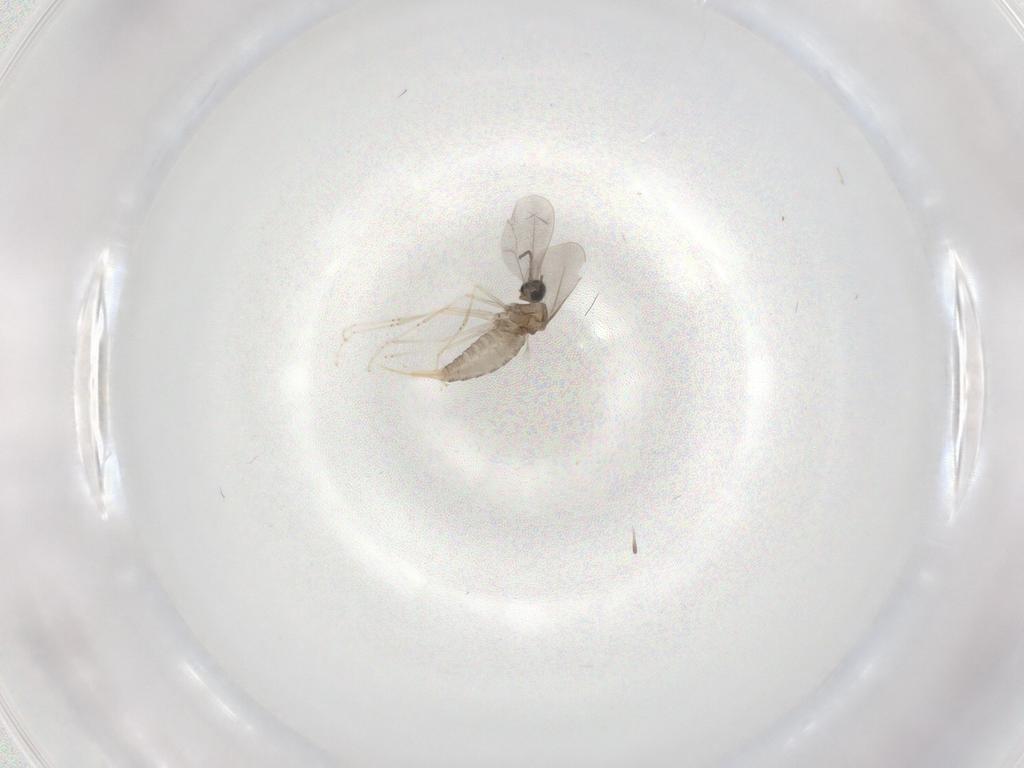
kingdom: Animalia
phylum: Arthropoda
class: Insecta
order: Diptera
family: Cecidomyiidae
